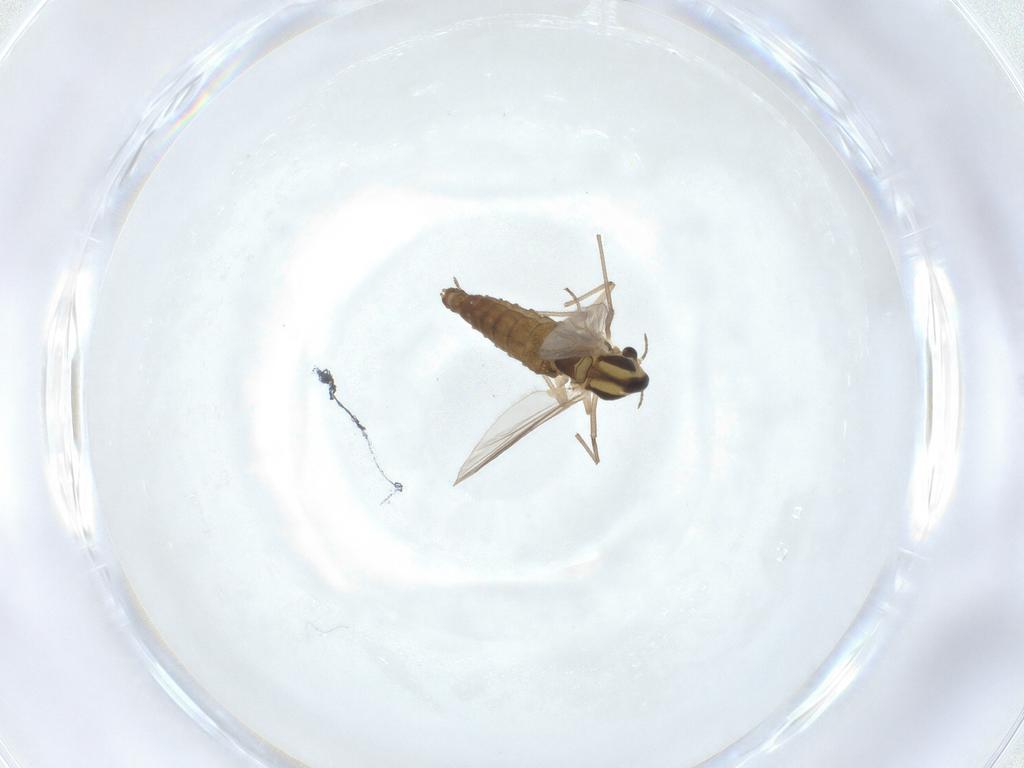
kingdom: Animalia
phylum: Arthropoda
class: Insecta
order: Diptera
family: Chironomidae
